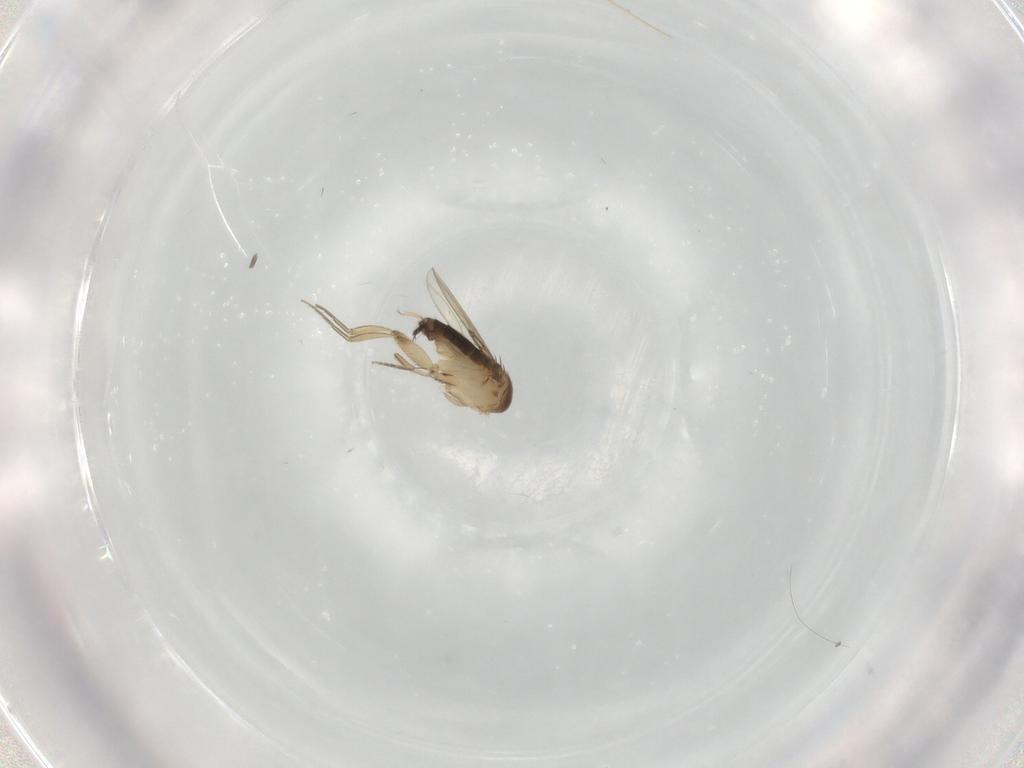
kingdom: Animalia
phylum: Arthropoda
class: Insecta
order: Diptera
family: Phoridae
